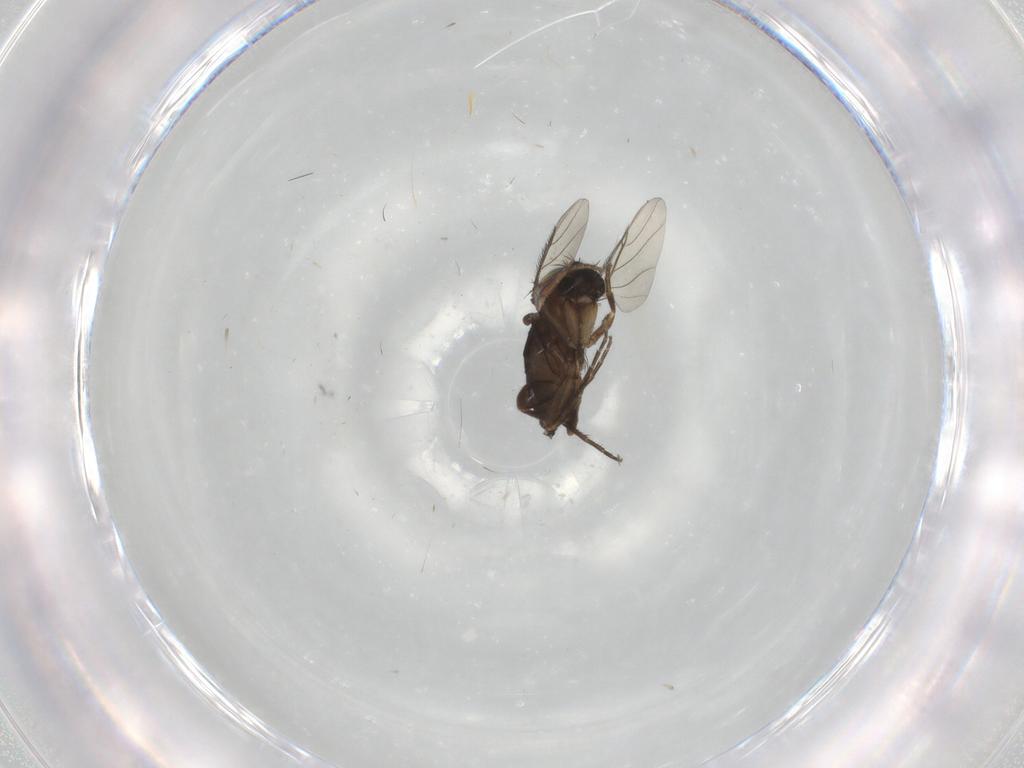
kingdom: Animalia
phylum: Arthropoda
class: Insecta
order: Diptera
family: Phoridae
